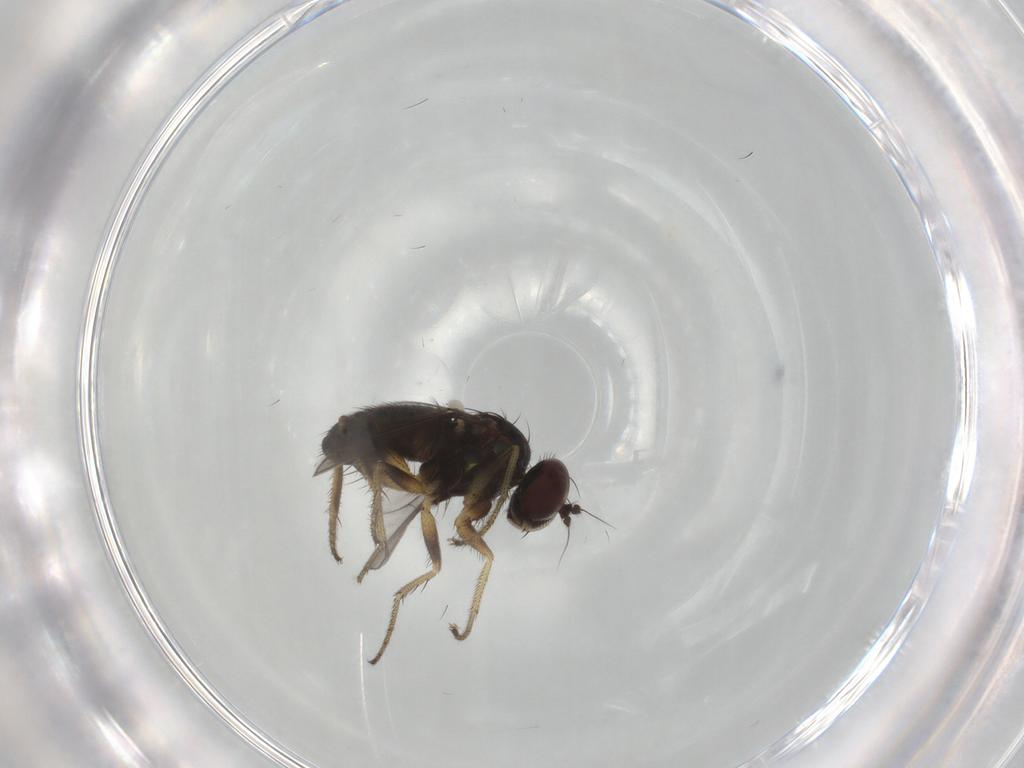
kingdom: Animalia
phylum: Arthropoda
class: Insecta
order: Diptera
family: Dolichopodidae
